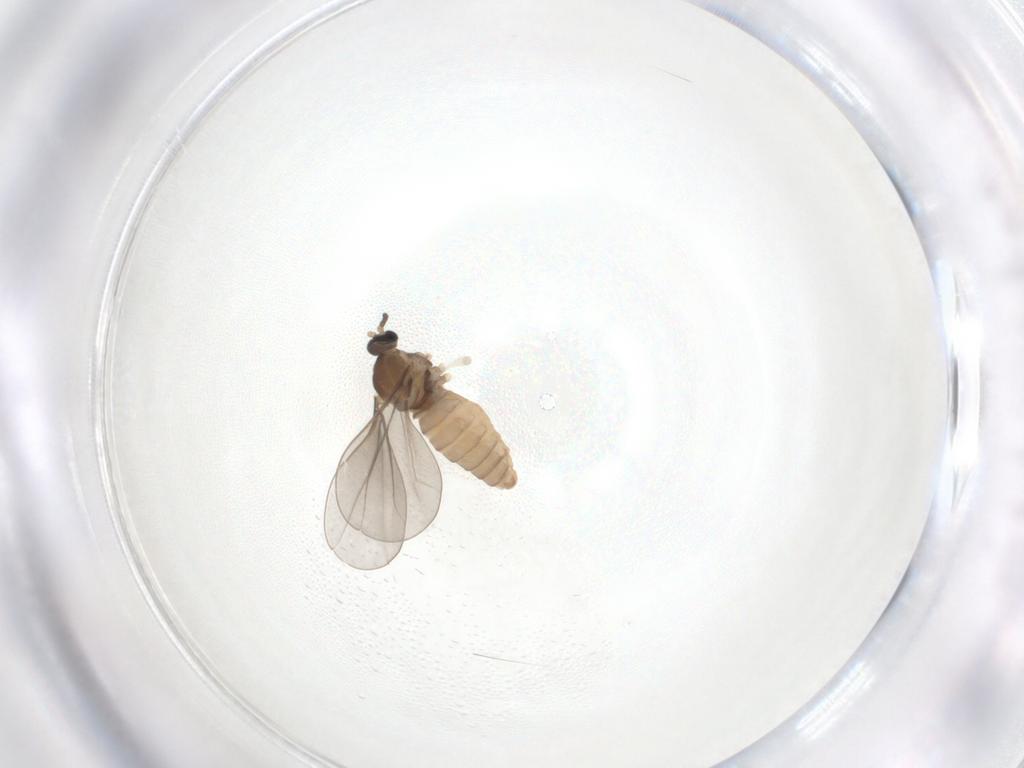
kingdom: Animalia
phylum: Arthropoda
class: Insecta
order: Diptera
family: Cecidomyiidae
